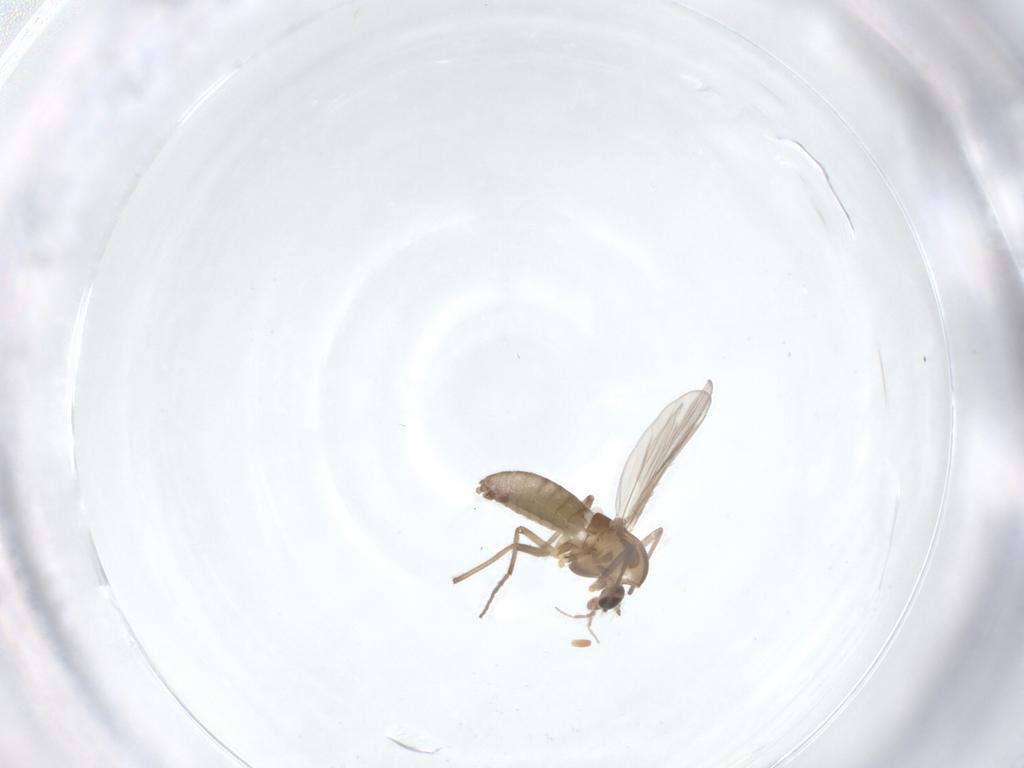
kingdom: Animalia
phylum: Arthropoda
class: Insecta
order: Diptera
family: Chironomidae
